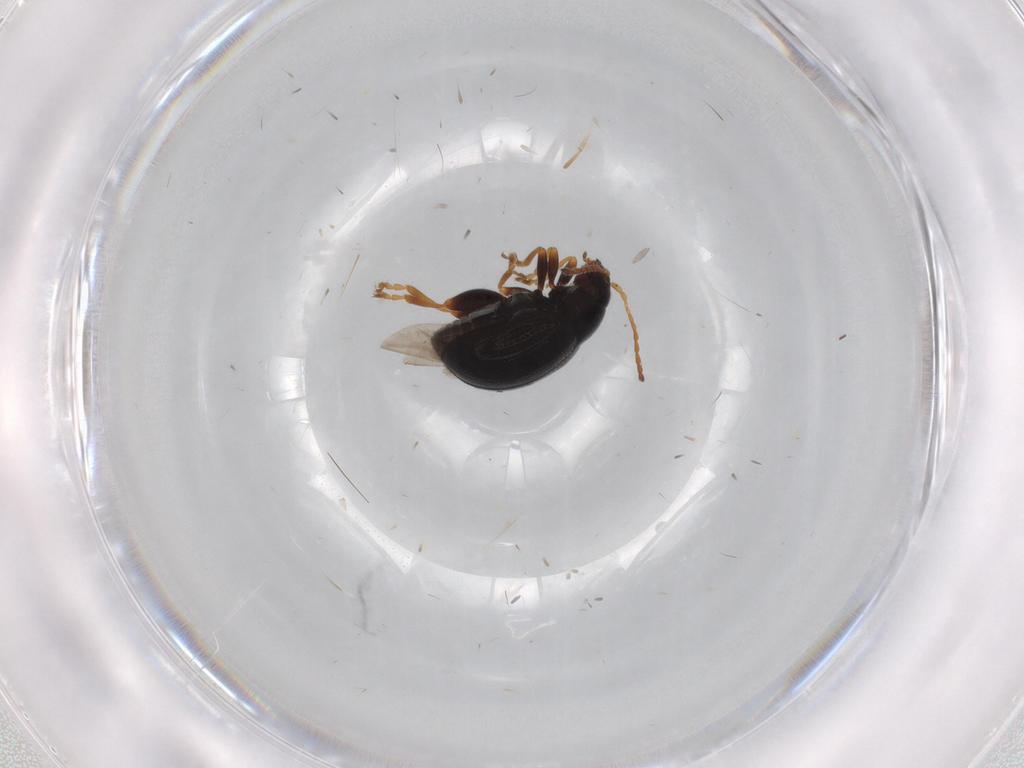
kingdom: Animalia
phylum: Arthropoda
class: Insecta
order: Coleoptera
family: Chrysomelidae
